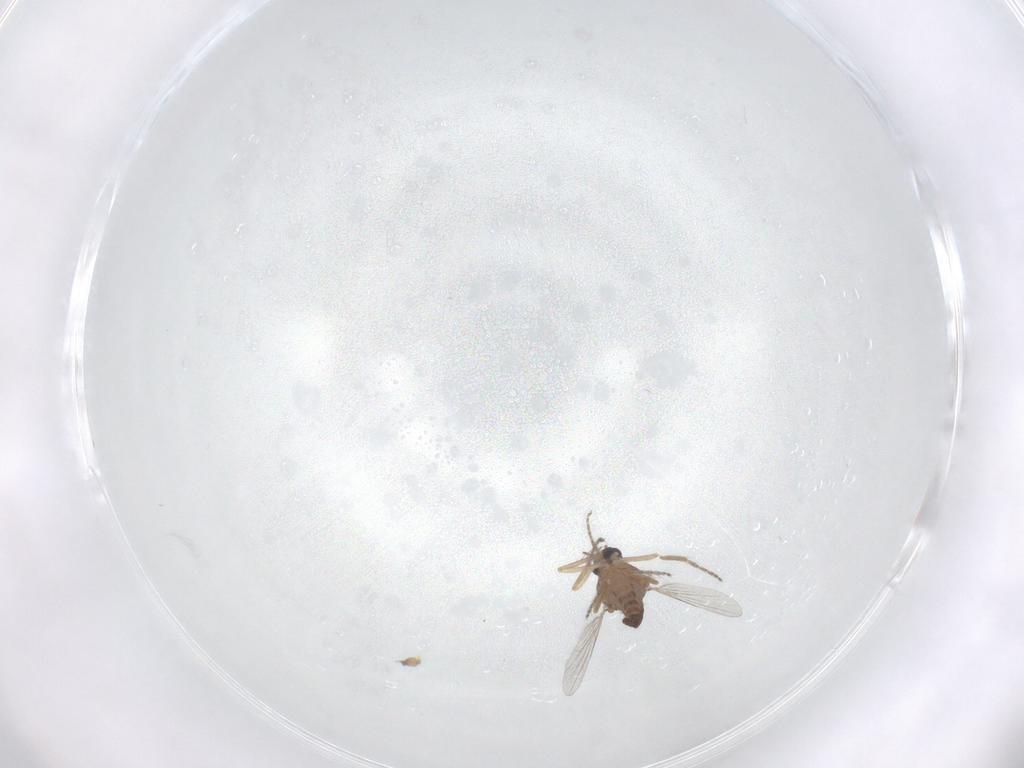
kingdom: Animalia
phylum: Arthropoda
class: Insecta
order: Diptera
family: Ceratopogonidae
